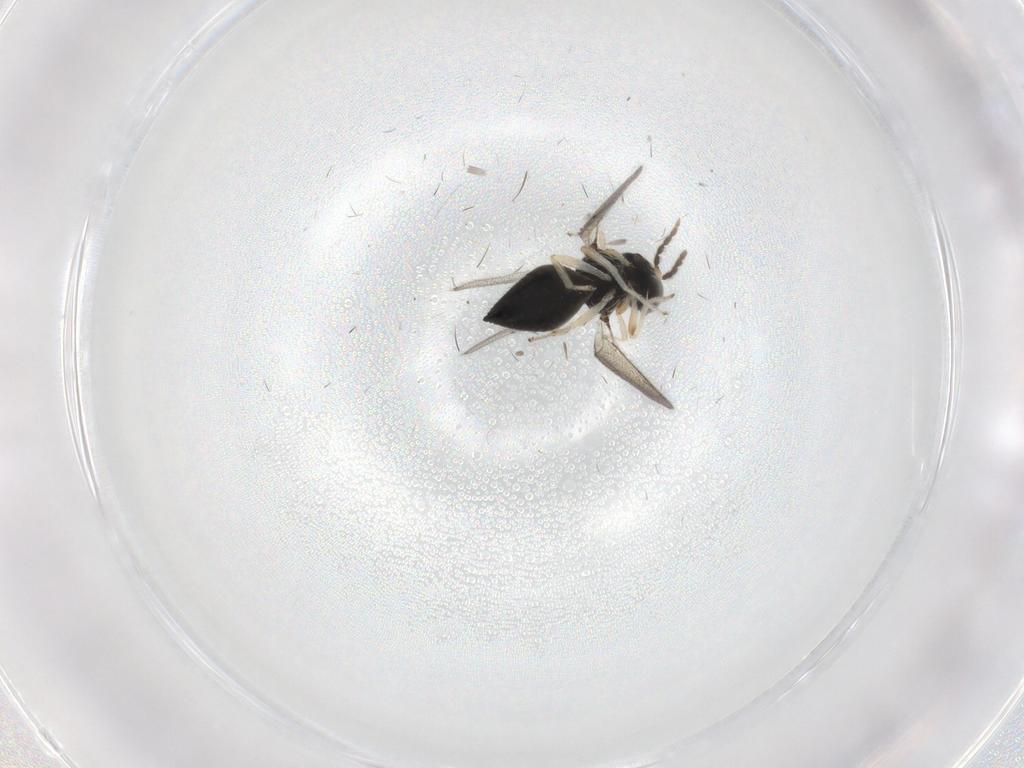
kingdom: Animalia
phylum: Arthropoda
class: Insecta
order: Hymenoptera
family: Eulophidae
